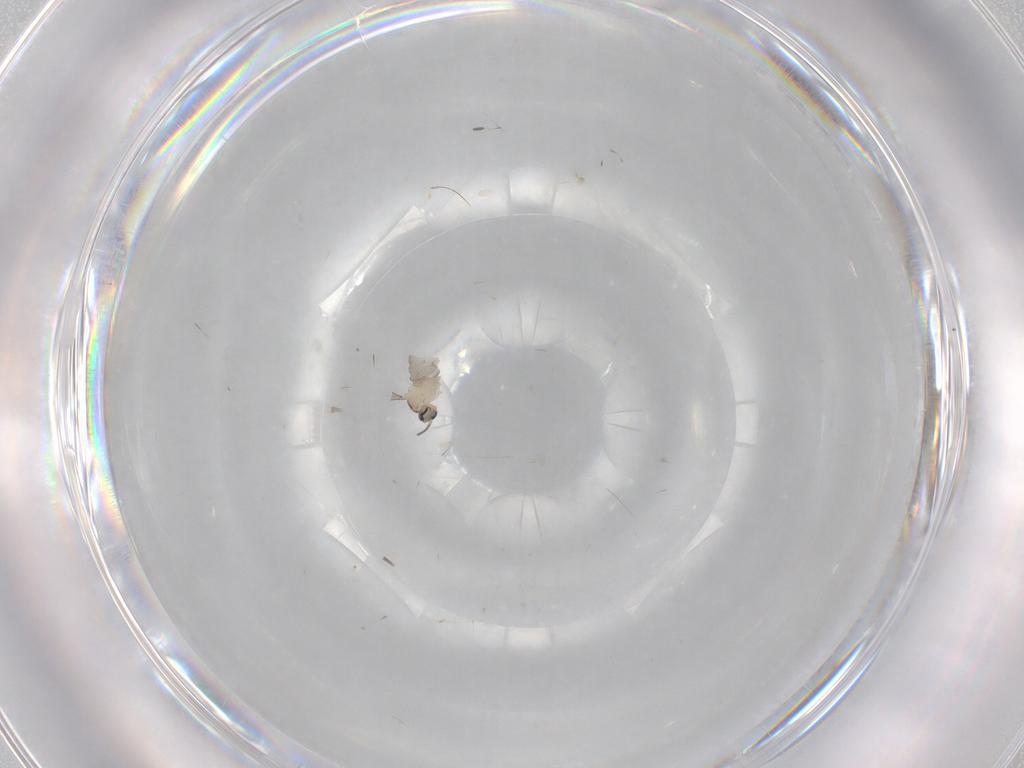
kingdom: Animalia
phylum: Arthropoda
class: Insecta
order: Diptera
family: Cecidomyiidae
